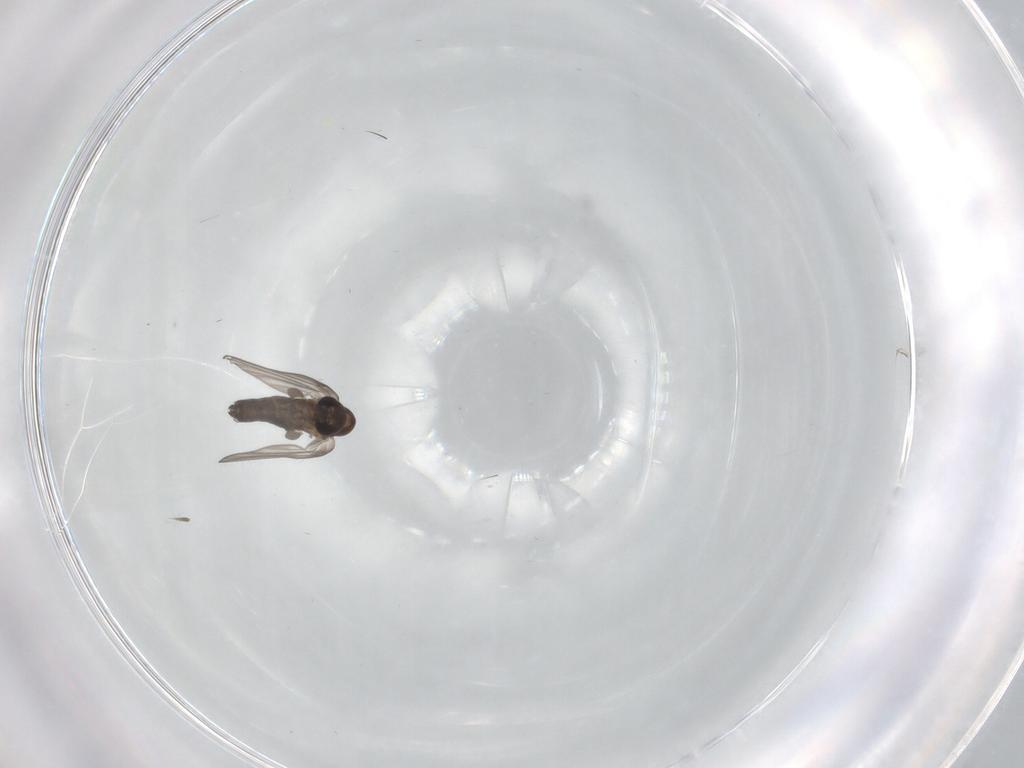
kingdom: Animalia
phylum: Arthropoda
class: Insecta
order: Diptera
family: Psychodidae
